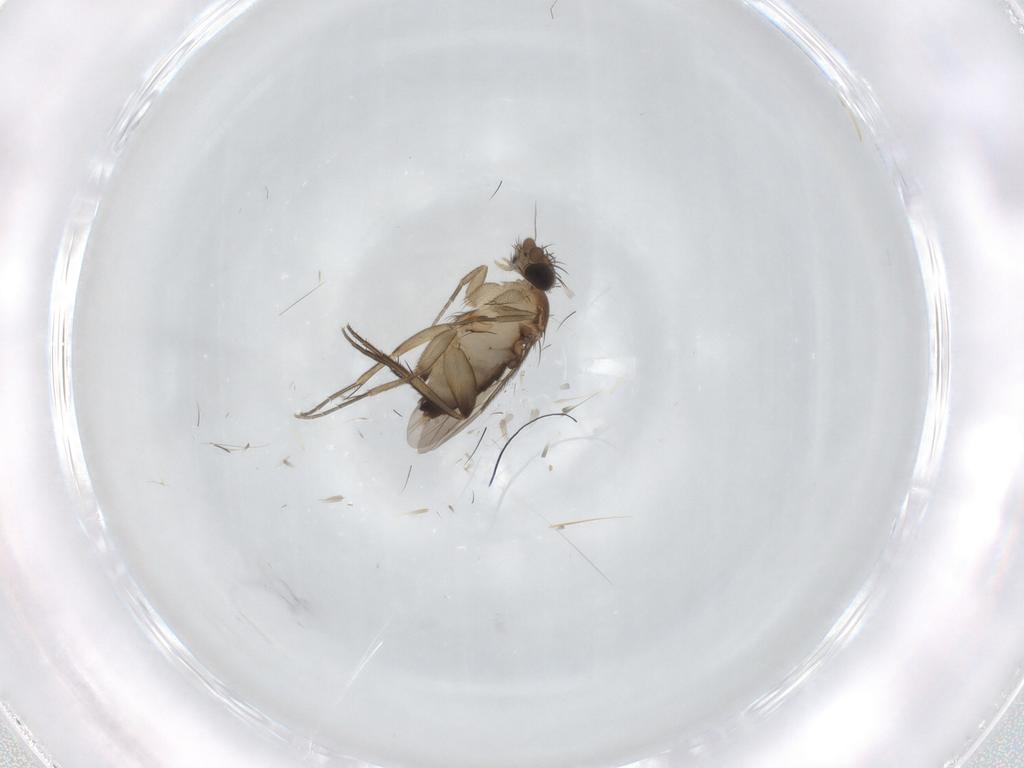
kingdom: Animalia
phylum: Arthropoda
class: Insecta
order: Diptera
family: Phoridae
